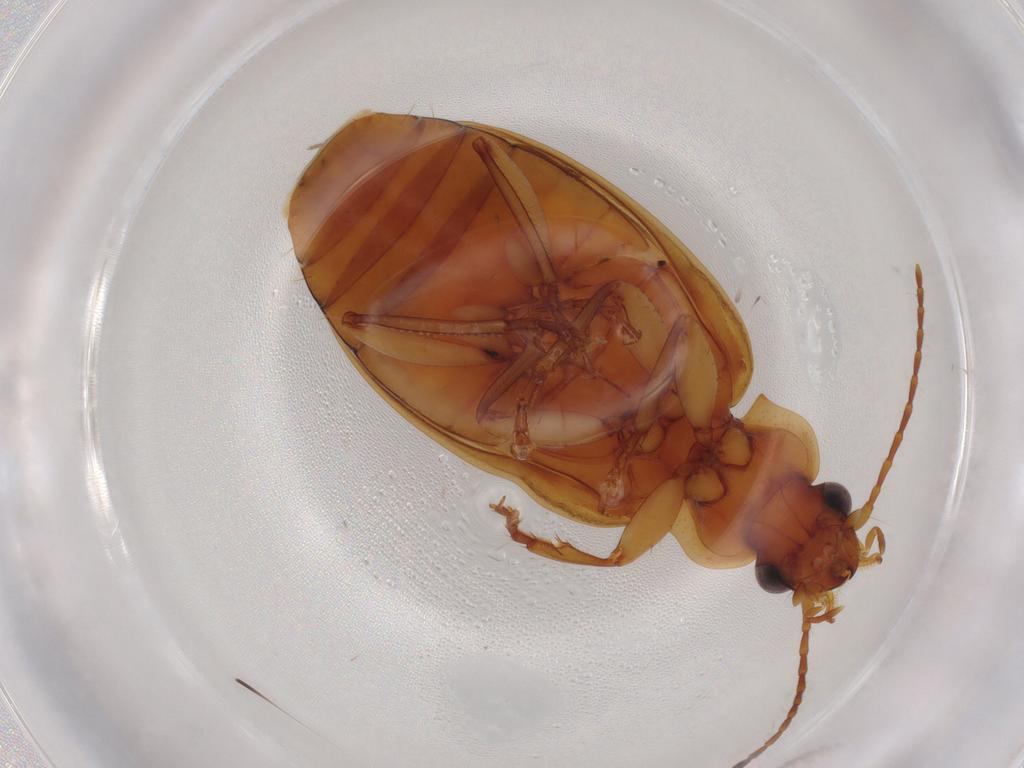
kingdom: Animalia
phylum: Arthropoda
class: Insecta
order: Coleoptera
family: Carabidae
